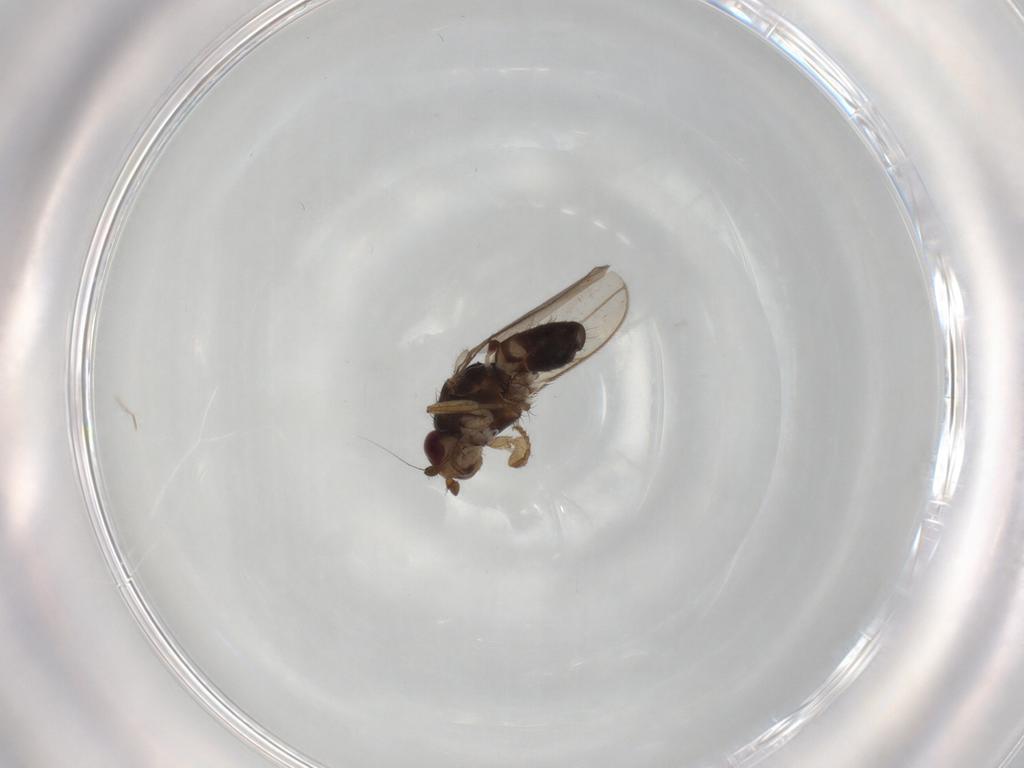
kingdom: Animalia
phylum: Arthropoda
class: Insecta
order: Diptera
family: Sphaeroceridae
